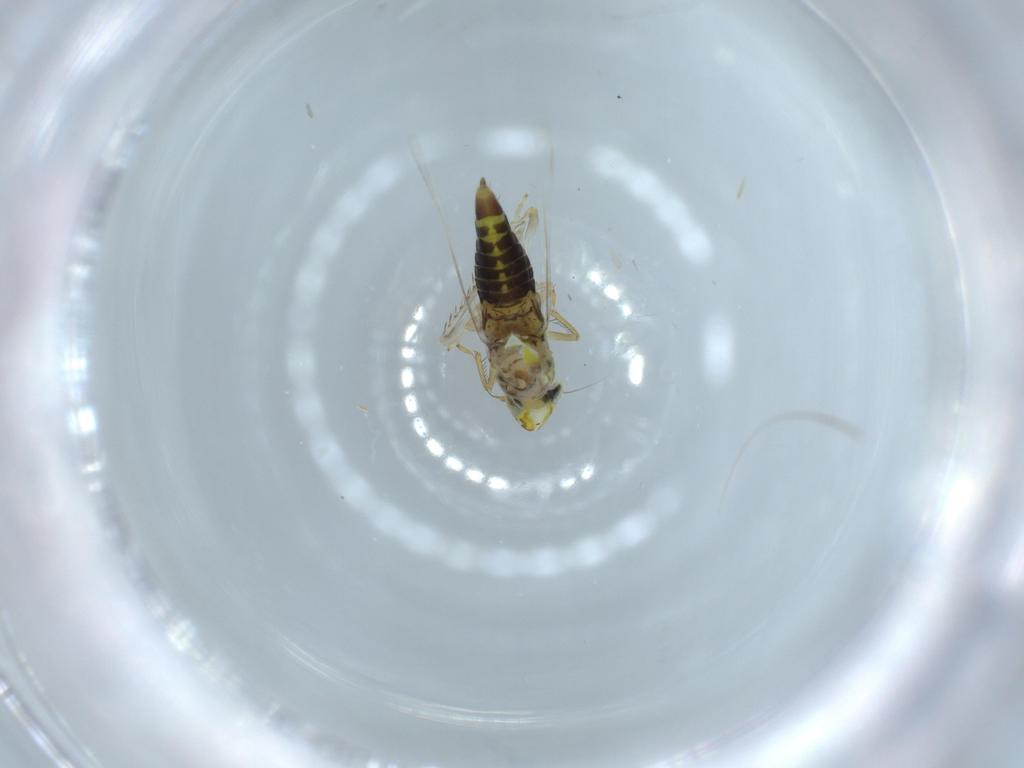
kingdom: Animalia
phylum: Arthropoda
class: Insecta
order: Hemiptera
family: Cicadellidae
